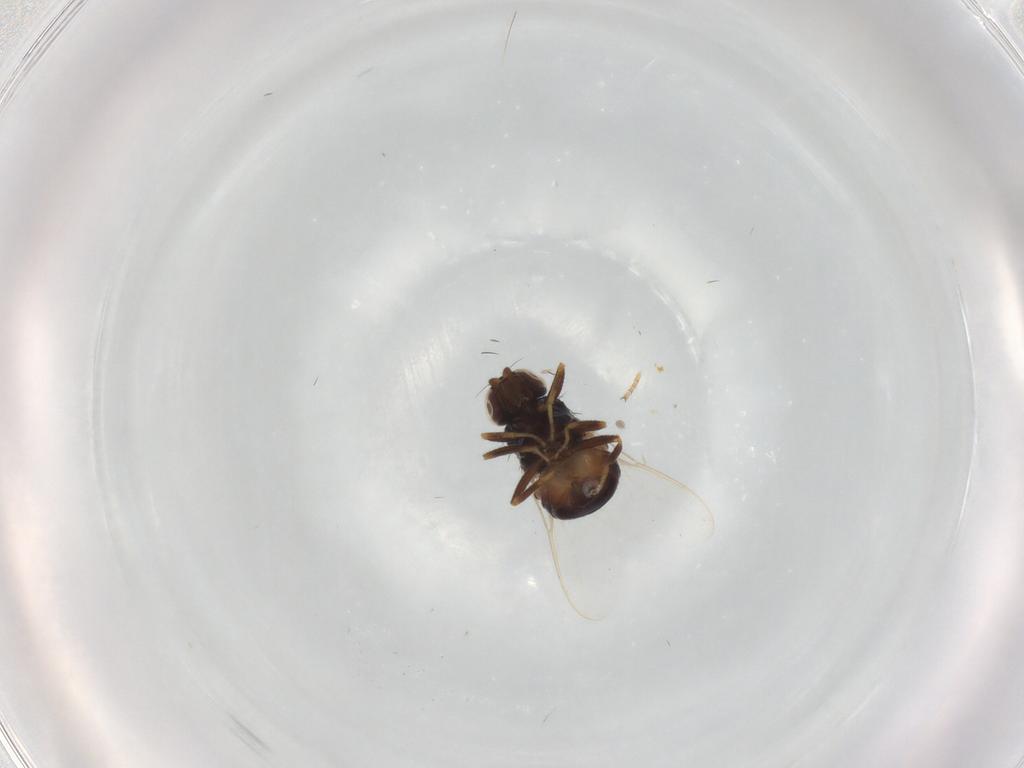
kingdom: Animalia
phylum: Arthropoda
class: Insecta
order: Diptera
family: Chloropidae
